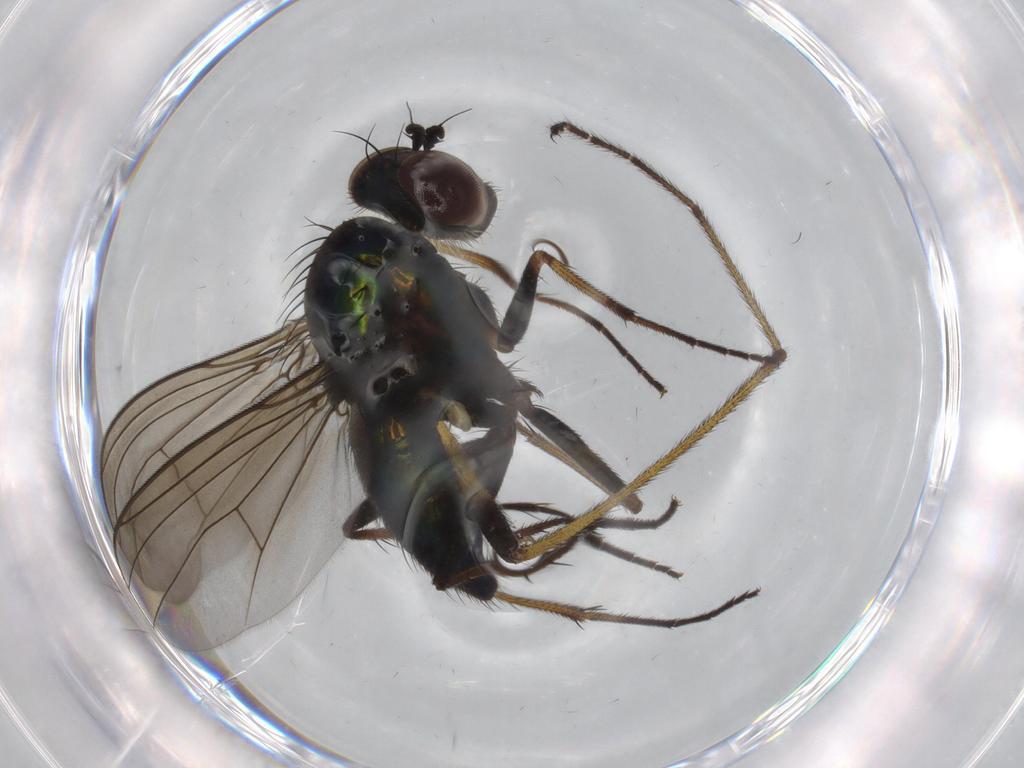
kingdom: Animalia
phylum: Arthropoda
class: Insecta
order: Diptera
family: Dolichopodidae
